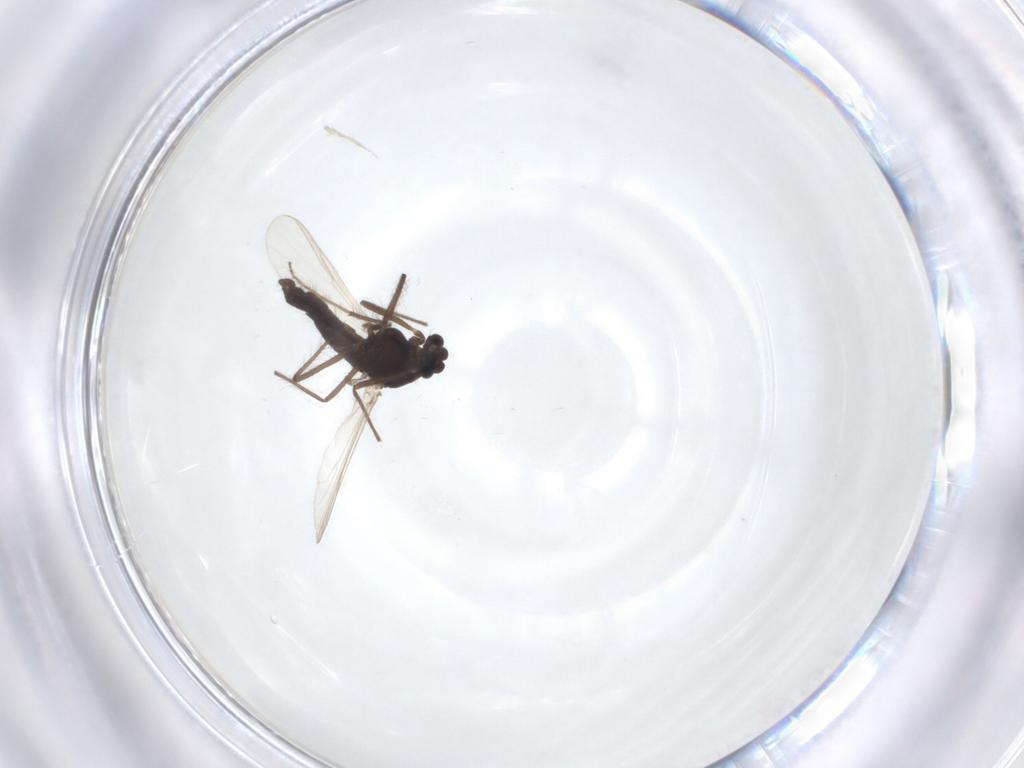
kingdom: Animalia
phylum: Arthropoda
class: Insecta
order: Diptera
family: Chironomidae
